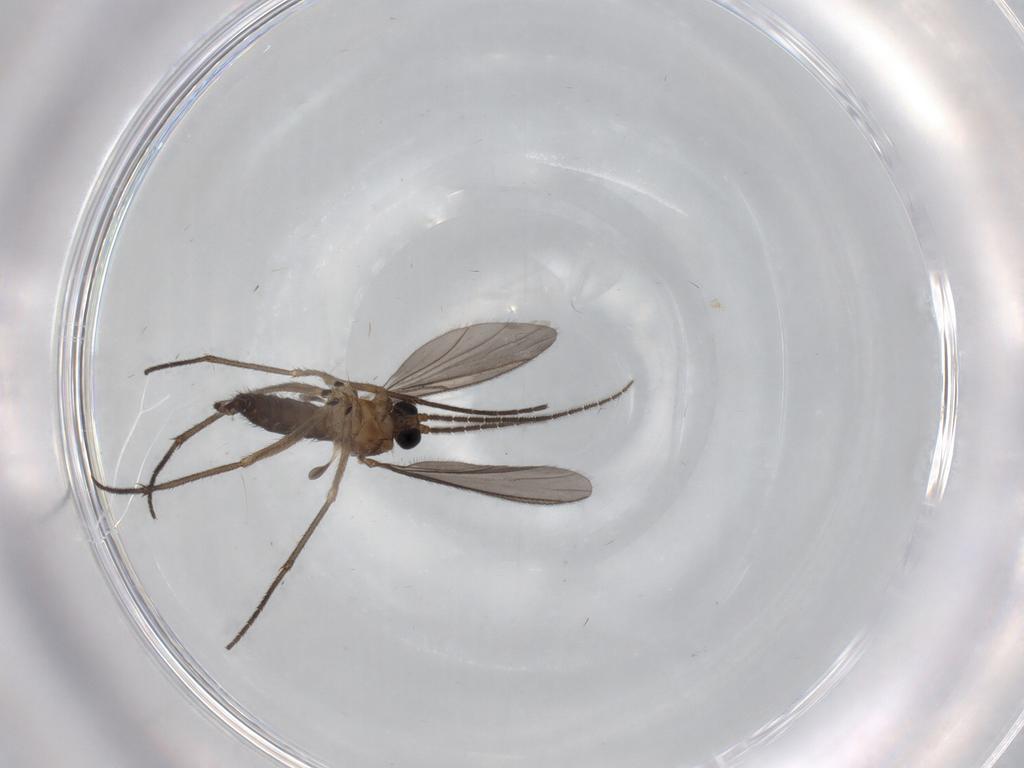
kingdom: Animalia
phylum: Arthropoda
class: Insecta
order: Diptera
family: Sciaridae
